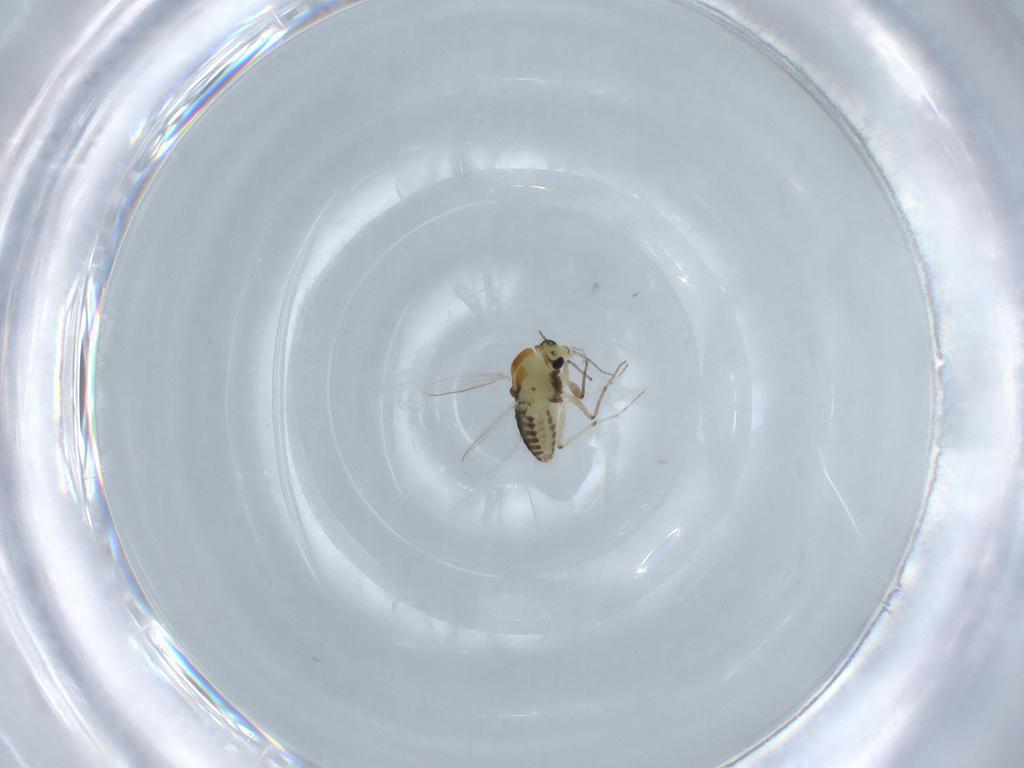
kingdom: Animalia
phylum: Arthropoda
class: Insecta
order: Diptera
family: Chironomidae
